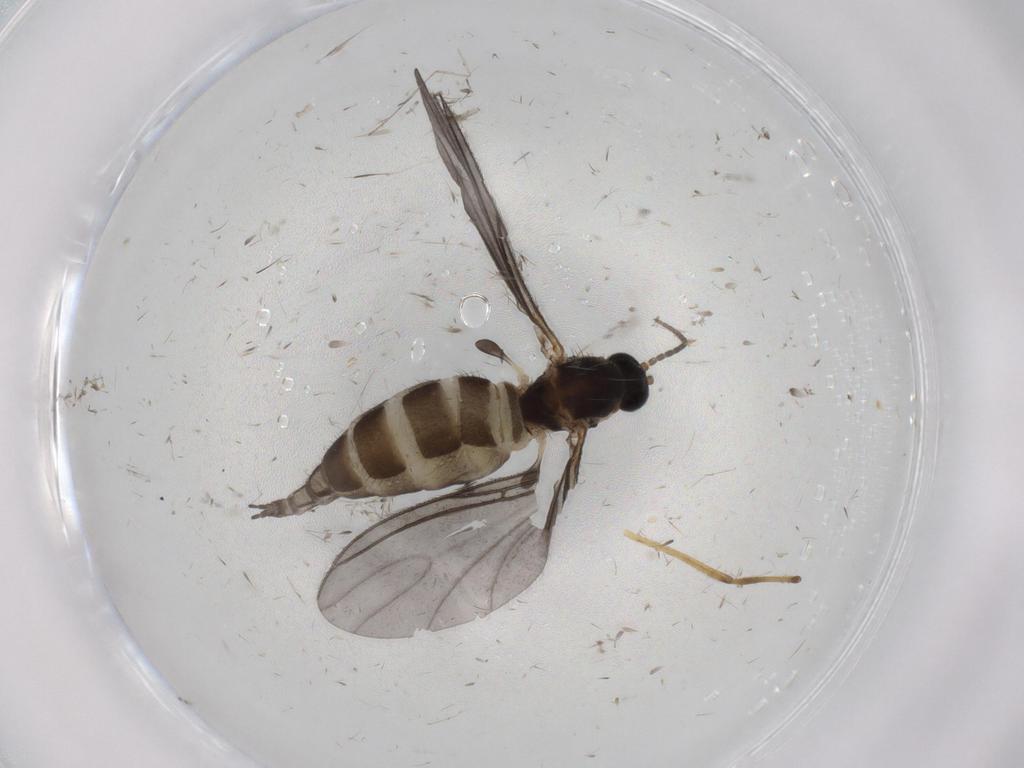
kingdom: Animalia
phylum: Arthropoda
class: Insecta
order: Diptera
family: Sciaridae
